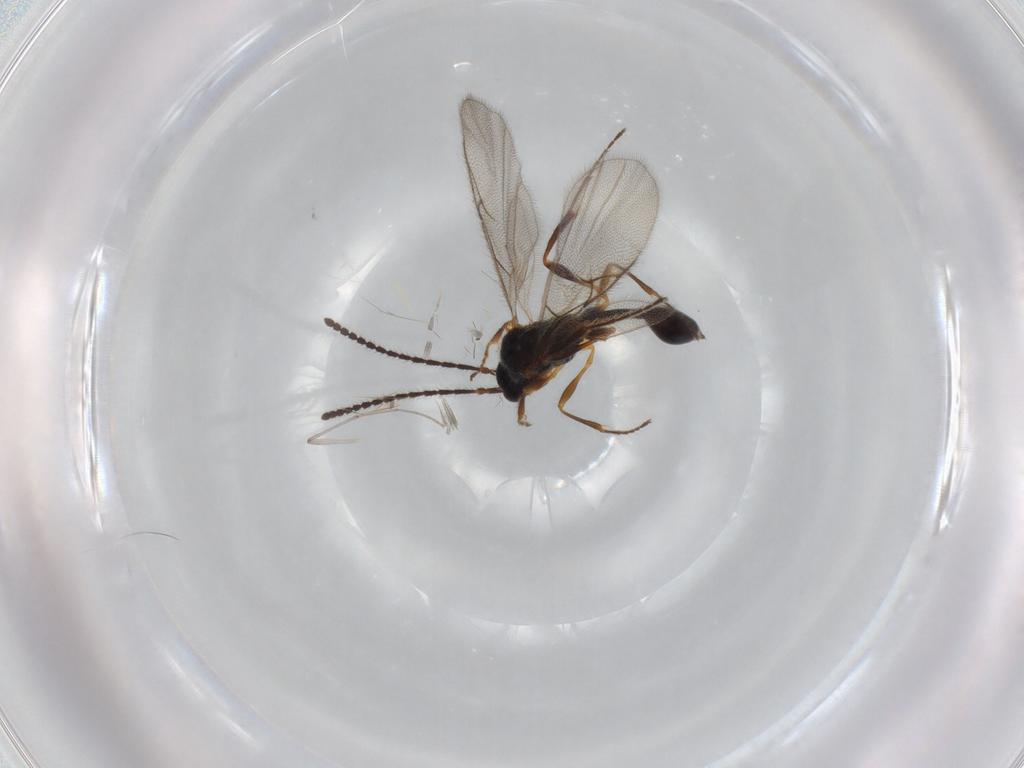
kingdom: Animalia
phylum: Arthropoda
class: Insecta
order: Hymenoptera
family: Diapriidae
